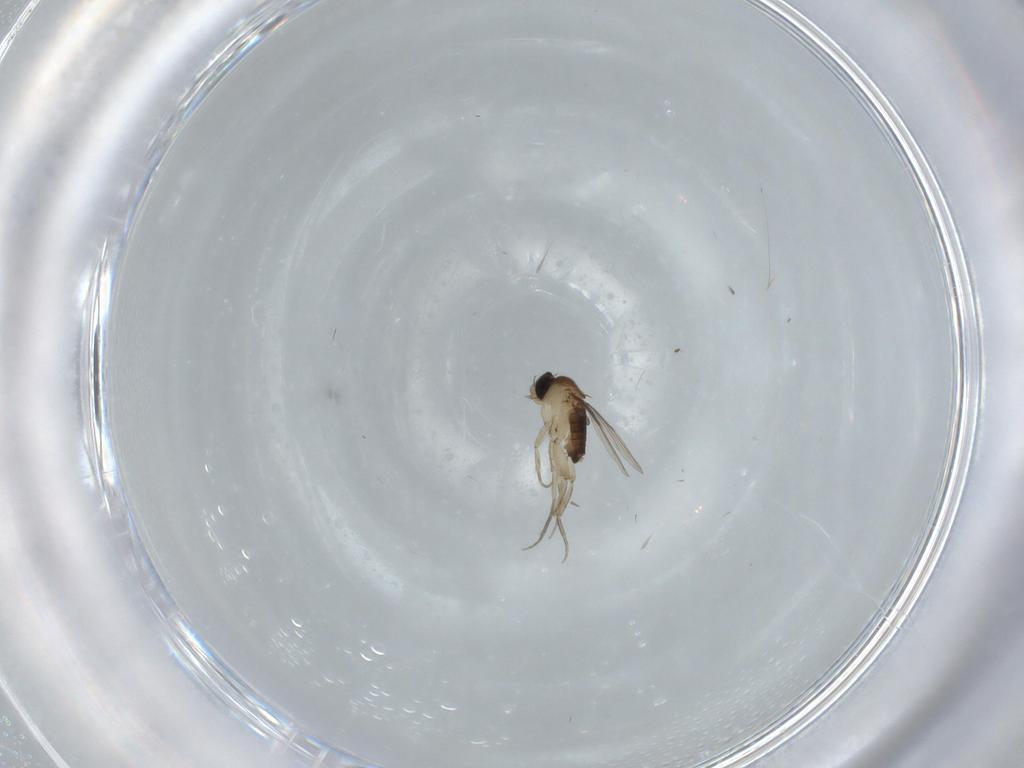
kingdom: Animalia
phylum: Arthropoda
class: Insecta
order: Diptera
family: Phoridae
